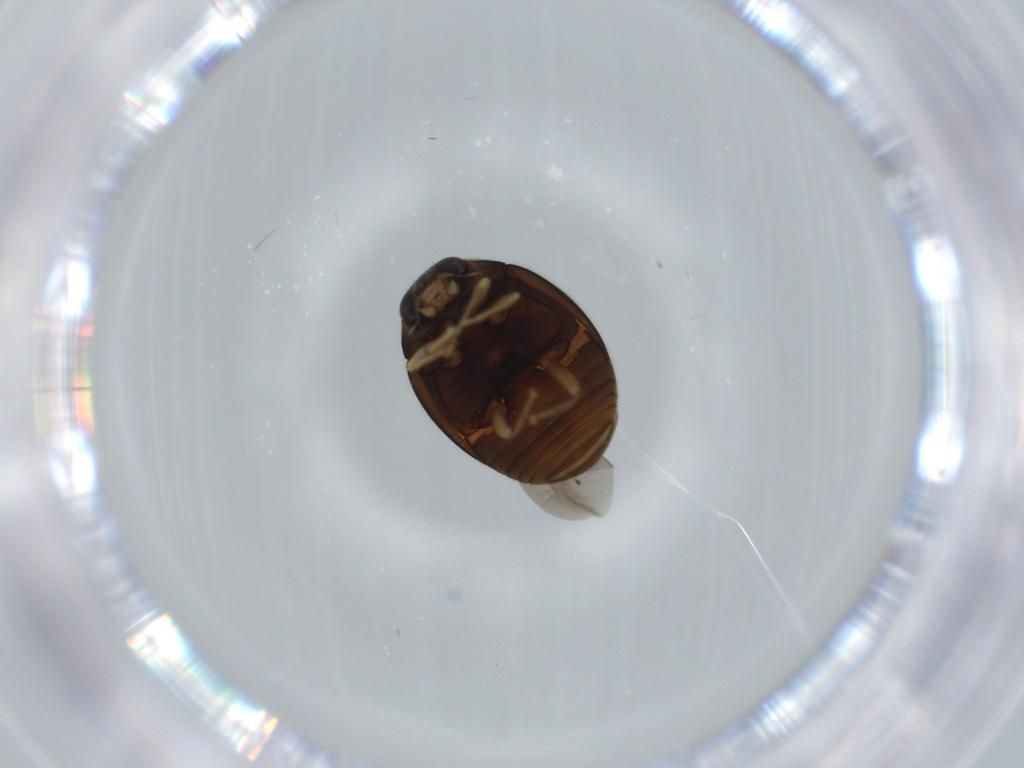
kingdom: Animalia
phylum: Arthropoda
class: Insecta
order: Coleoptera
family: Coccinellidae
